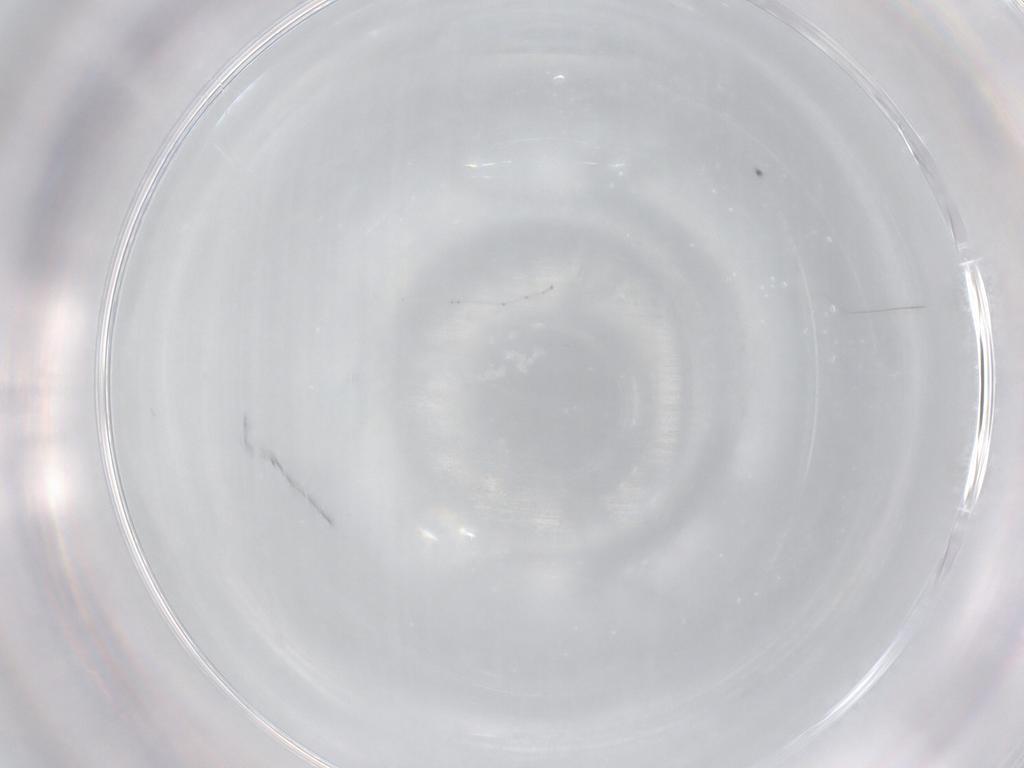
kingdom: Animalia
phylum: Arthropoda
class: Insecta
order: Diptera
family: Cecidomyiidae
